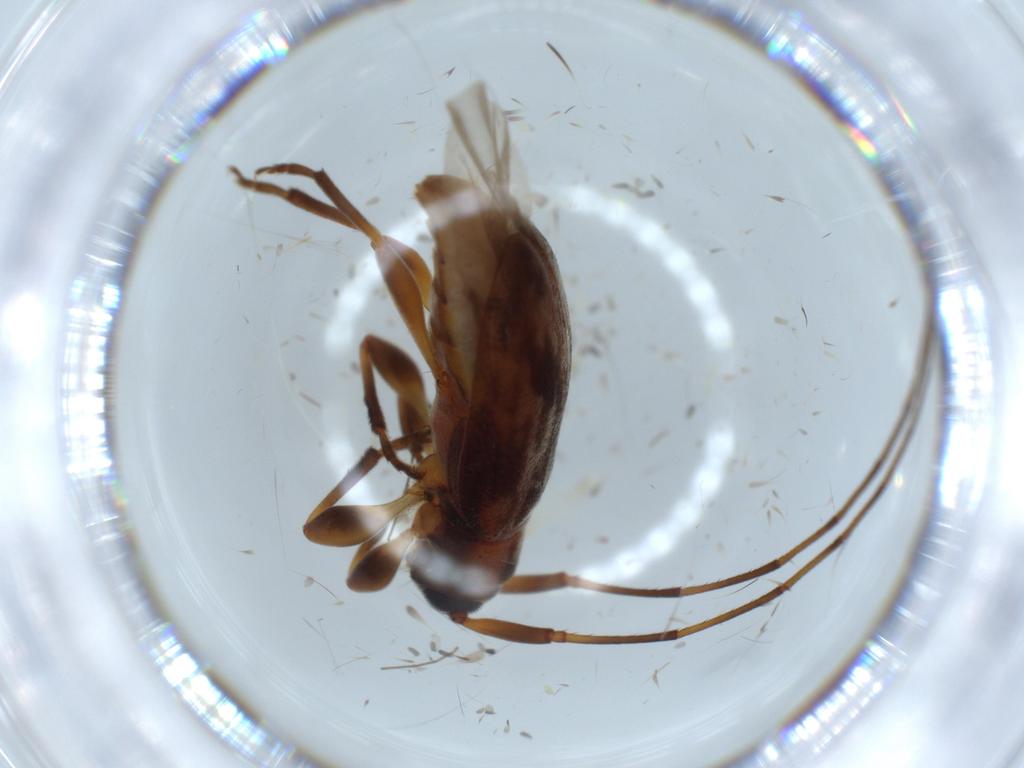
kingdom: Animalia
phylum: Arthropoda
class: Insecta
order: Coleoptera
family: Cerambycidae
